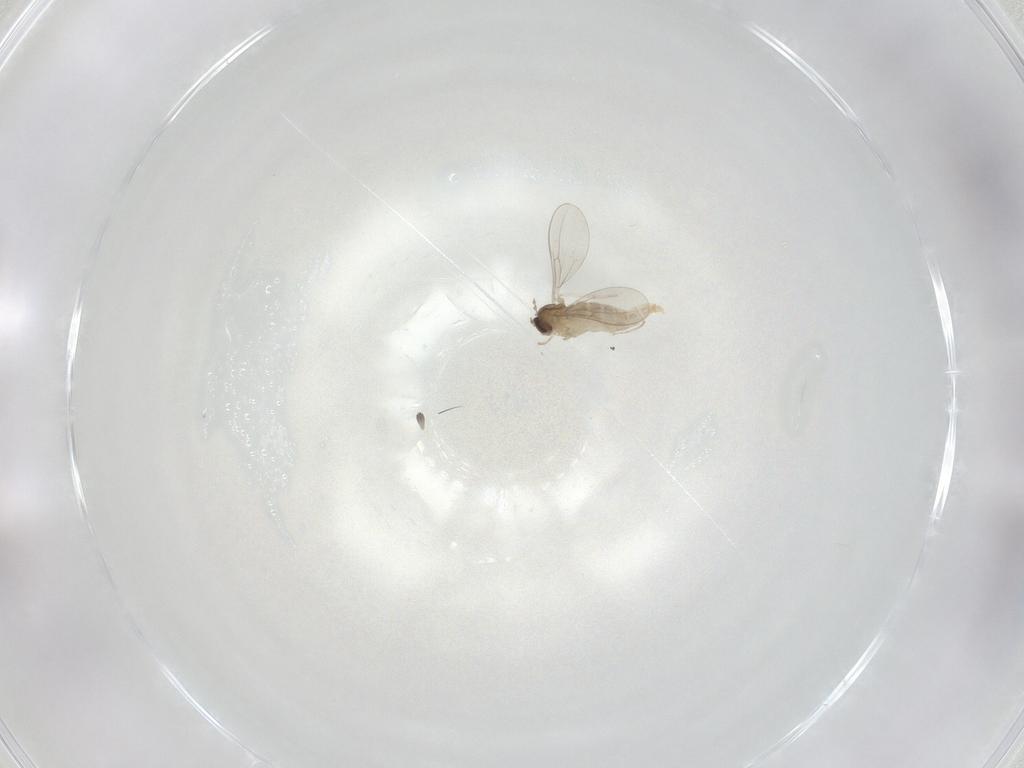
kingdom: Animalia
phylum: Arthropoda
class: Insecta
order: Diptera
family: Cecidomyiidae
